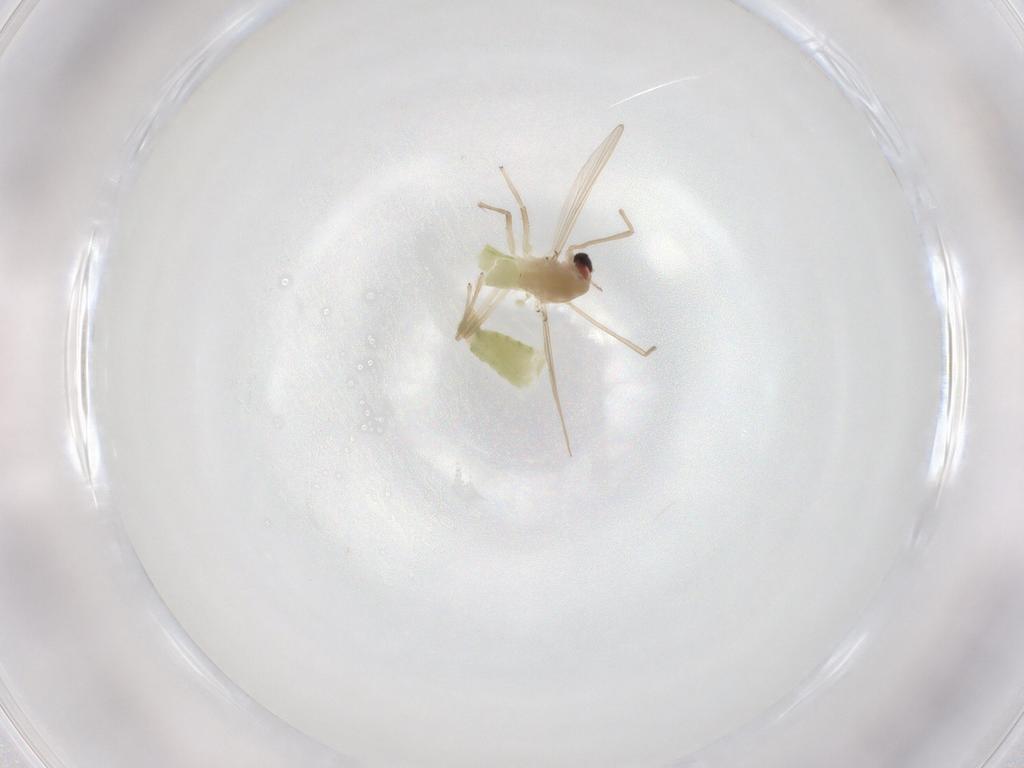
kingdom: Animalia
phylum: Arthropoda
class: Insecta
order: Diptera
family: Chironomidae
